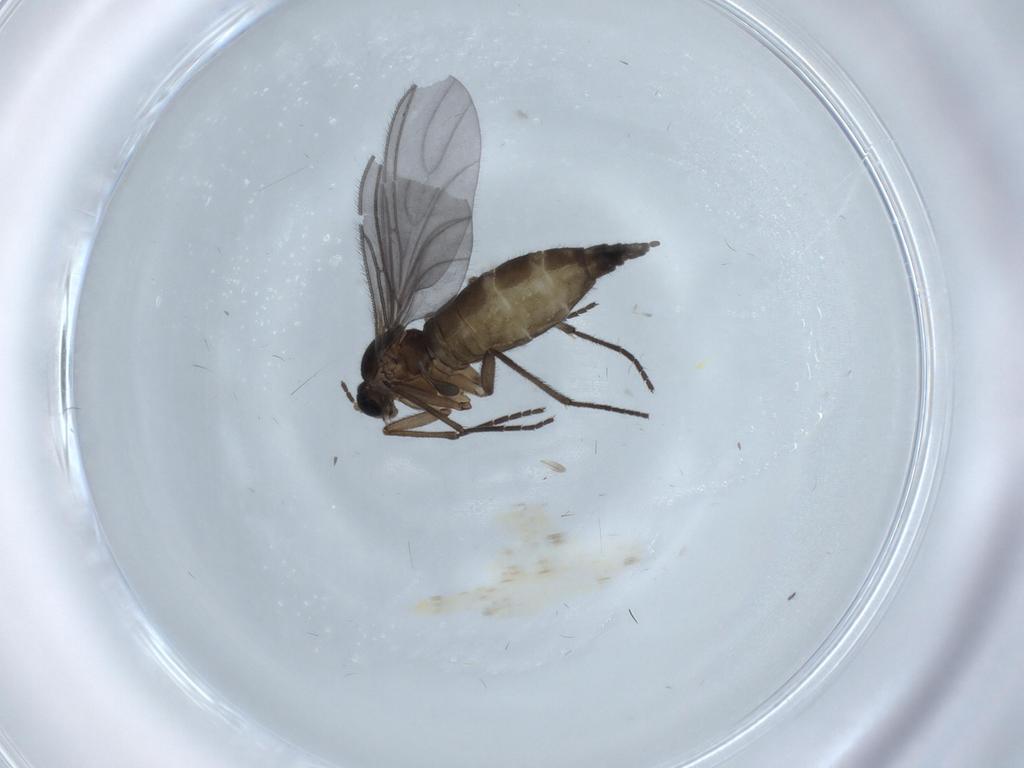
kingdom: Animalia
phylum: Arthropoda
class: Insecta
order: Diptera
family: Sciaridae
